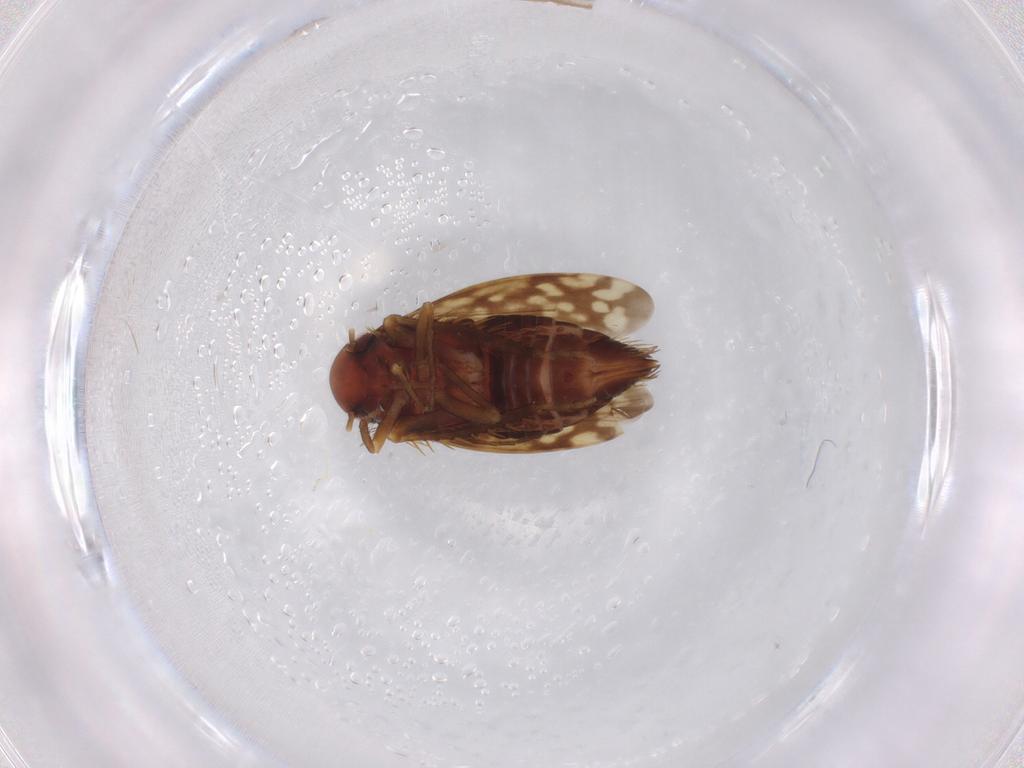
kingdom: Animalia
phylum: Arthropoda
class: Insecta
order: Hemiptera
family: Cicadellidae
